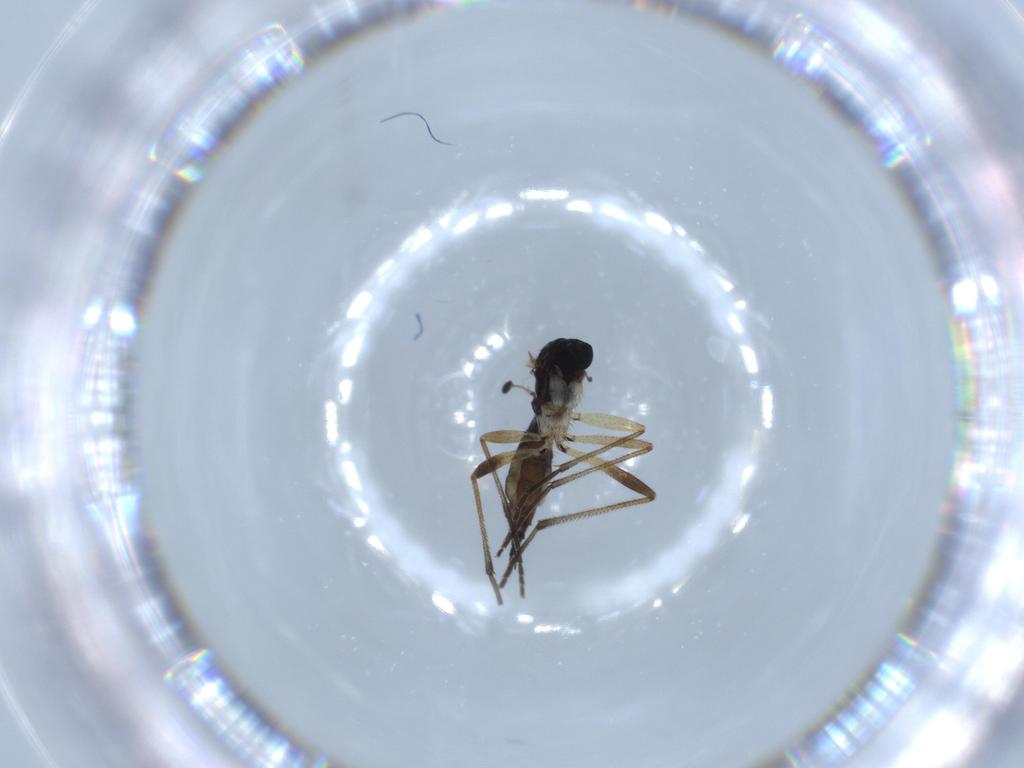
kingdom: Animalia
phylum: Arthropoda
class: Insecta
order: Diptera
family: Sciaridae
